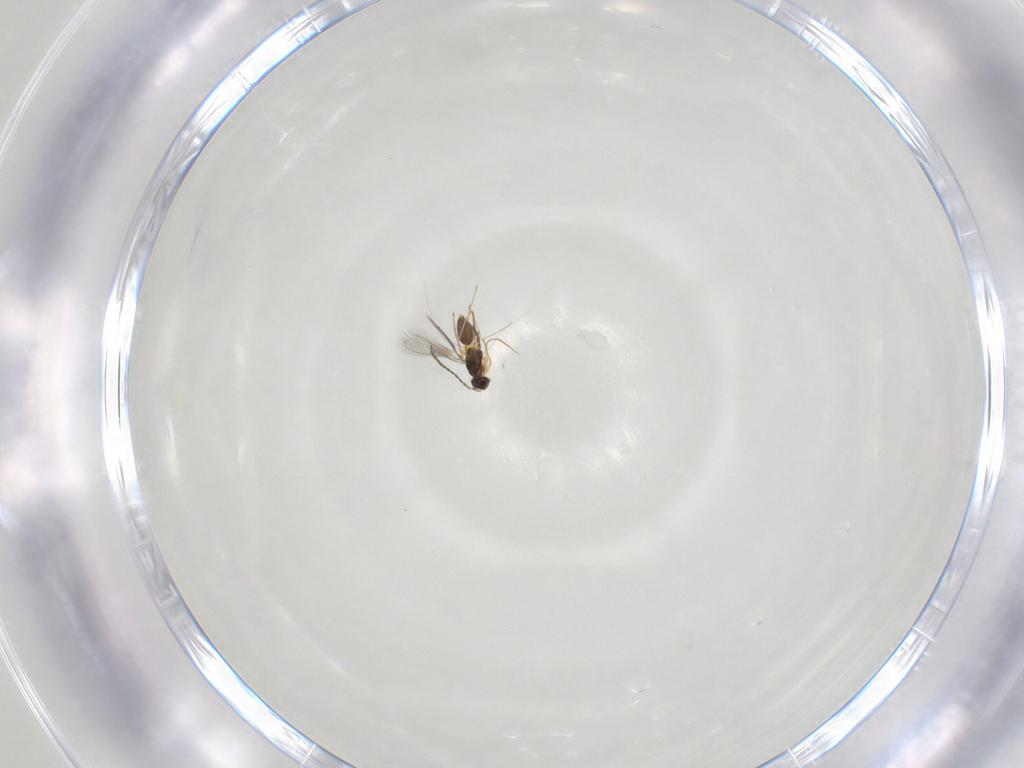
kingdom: Animalia
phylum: Arthropoda
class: Insecta
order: Hymenoptera
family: Mymaridae
